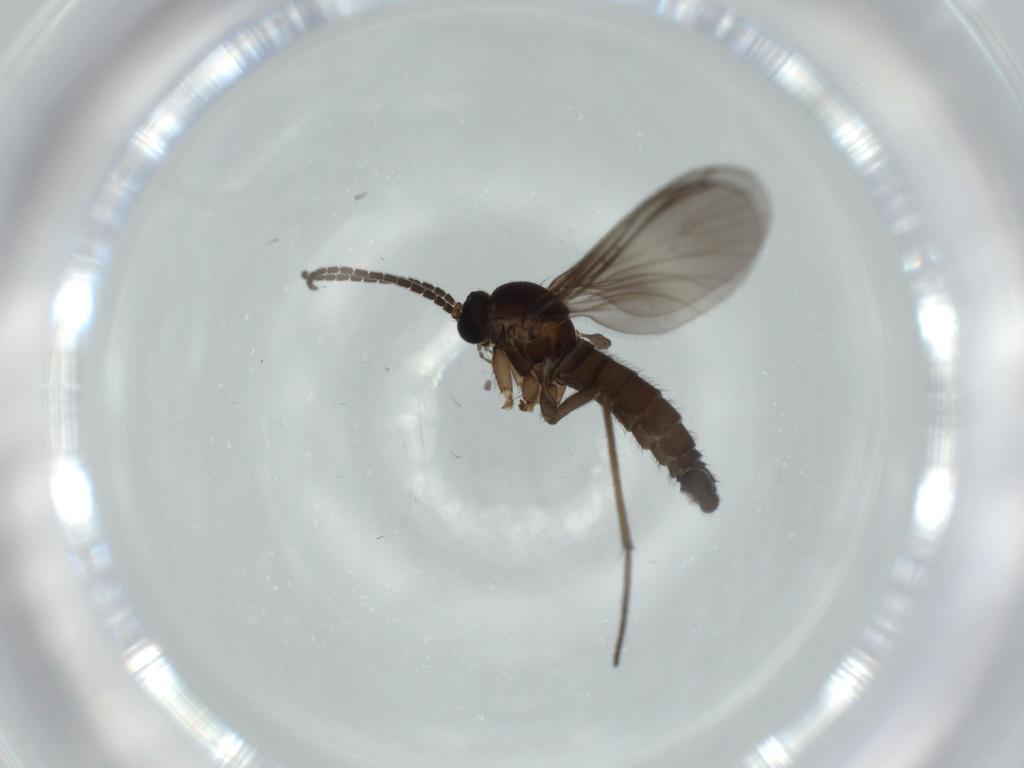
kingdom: Animalia
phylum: Arthropoda
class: Insecta
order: Diptera
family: Sciaridae
